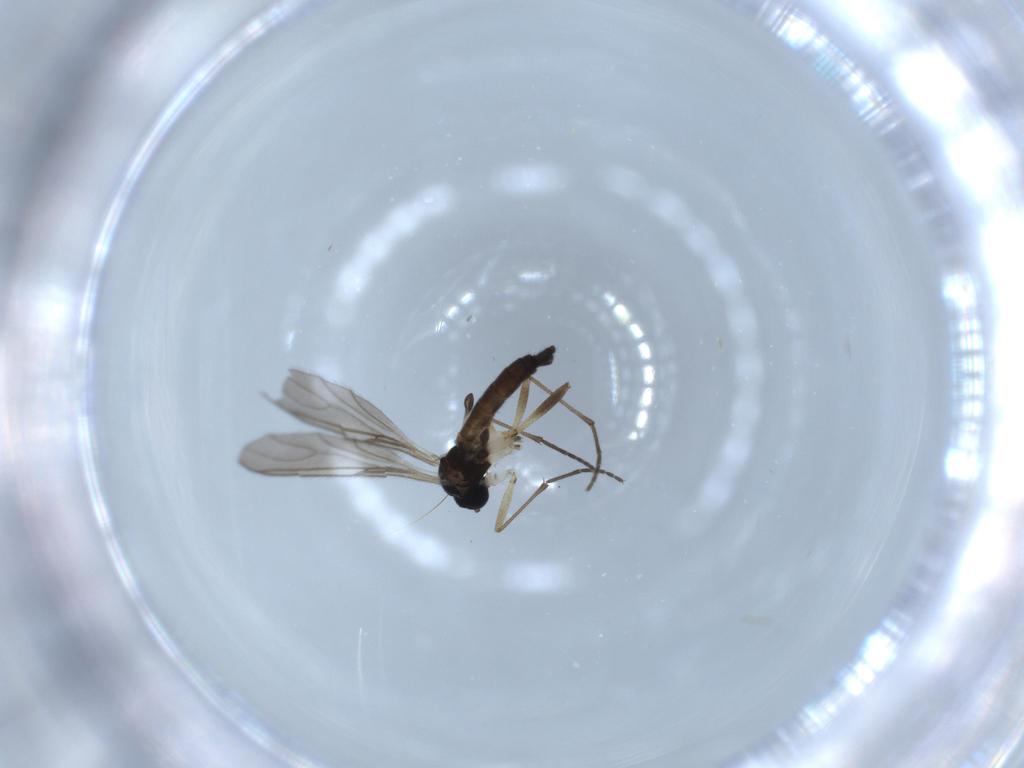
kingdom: Animalia
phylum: Arthropoda
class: Insecta
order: Diptera
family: Sciaridae
